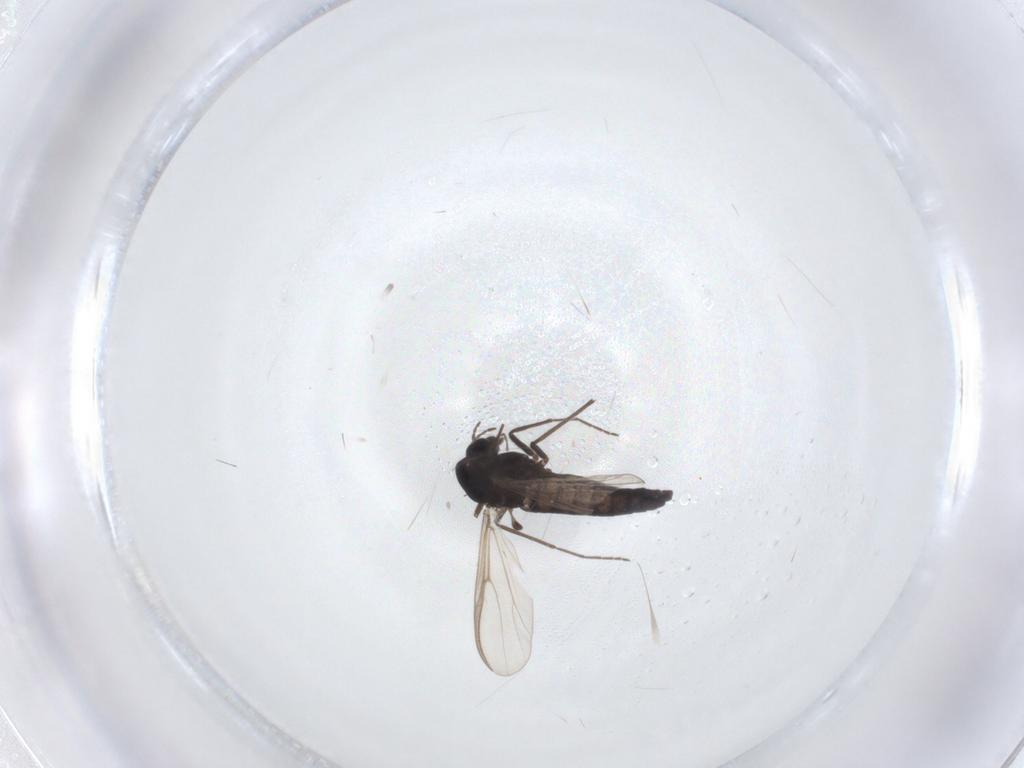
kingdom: Animalia
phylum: Arthropoda
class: Insecta
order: Diptera
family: Chironomidae
